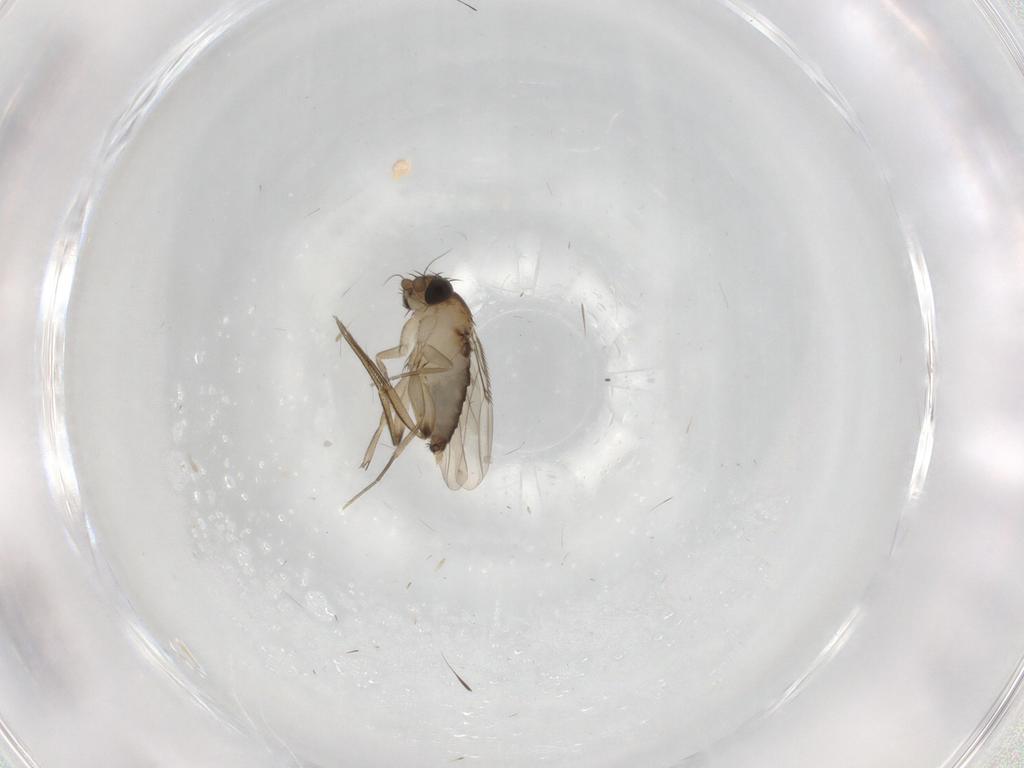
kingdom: Animalia
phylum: Arthropoda
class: Insecta
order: Diptera
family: Phoridae
